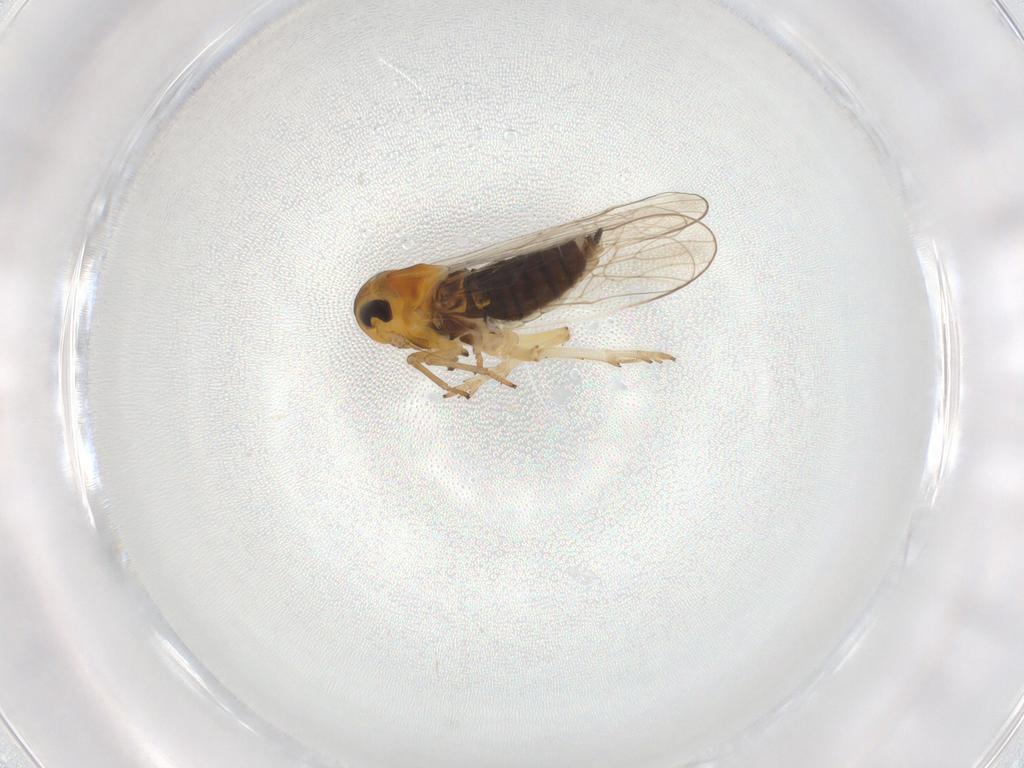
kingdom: Animalia
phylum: Arthropoda
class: Insecta
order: Hemiptera
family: Delphacidae
